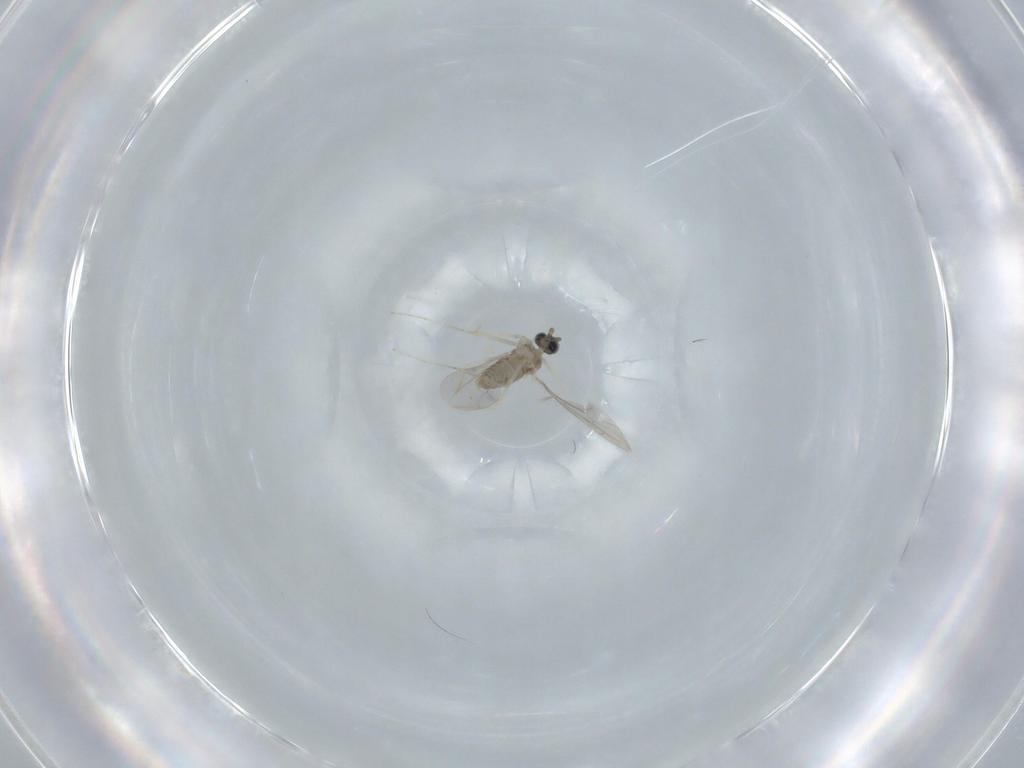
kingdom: Animalia
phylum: Arthropoda
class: Insecta
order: Diptera
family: Cecidomyiidae
